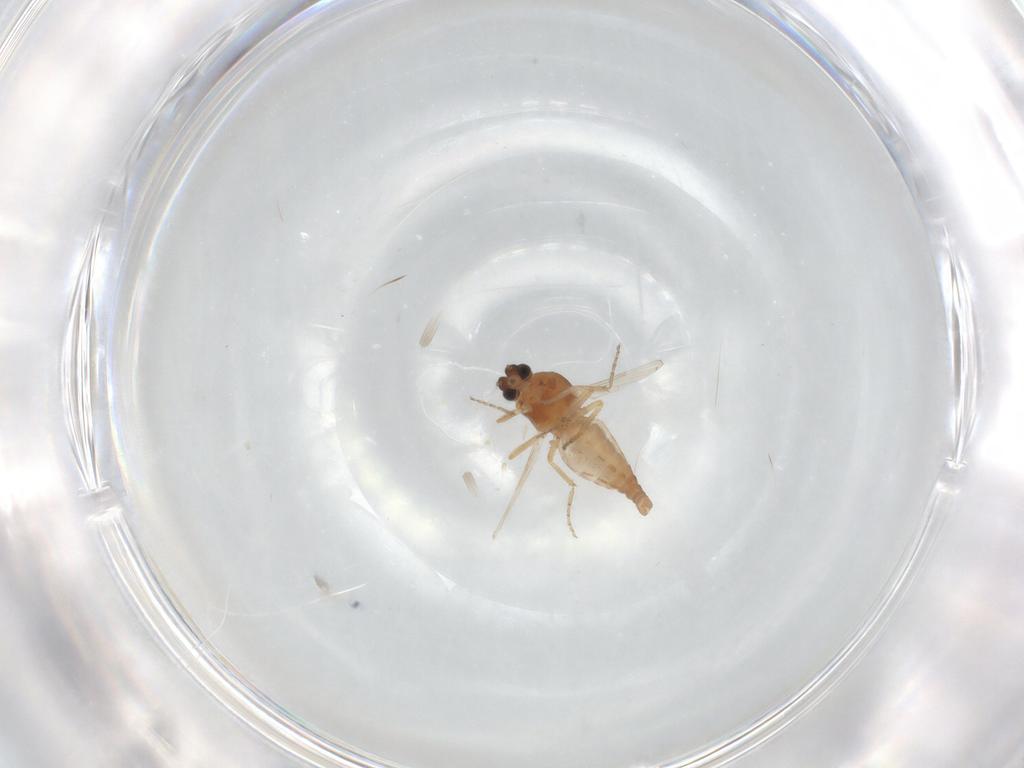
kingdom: Animalia
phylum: Arthropoda
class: Insecta
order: Diptera
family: Ceratopogonidae
